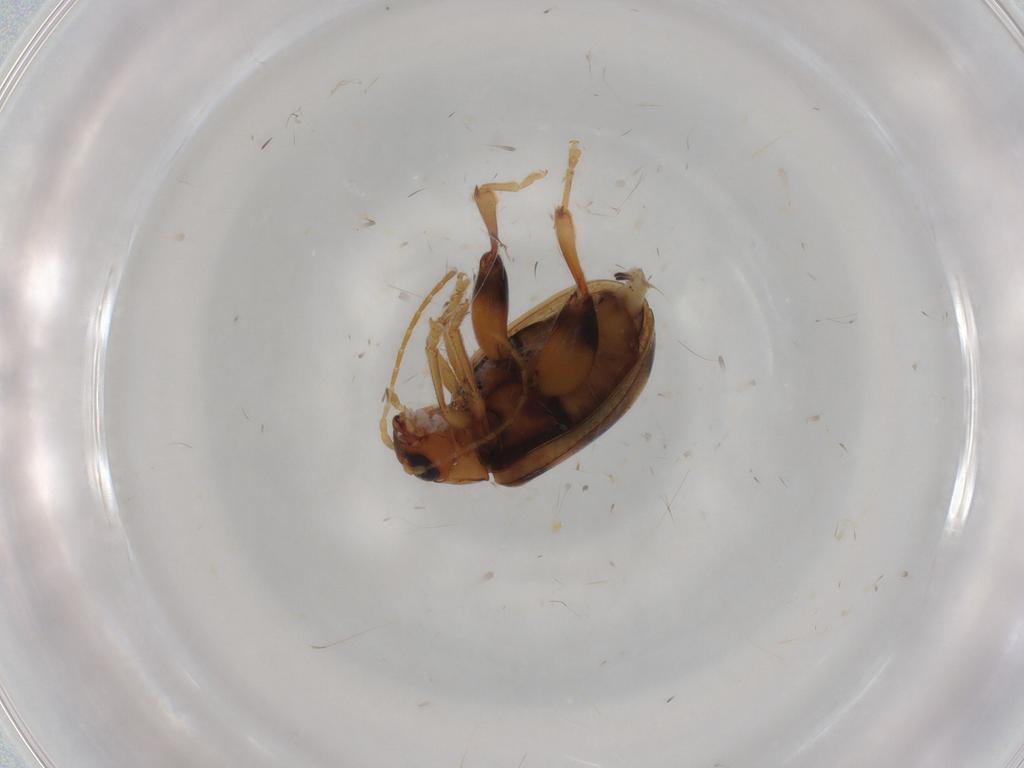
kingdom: Animalia
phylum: Arthropoda
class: Insecta
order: Coleoptera
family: Chrysomelidae
